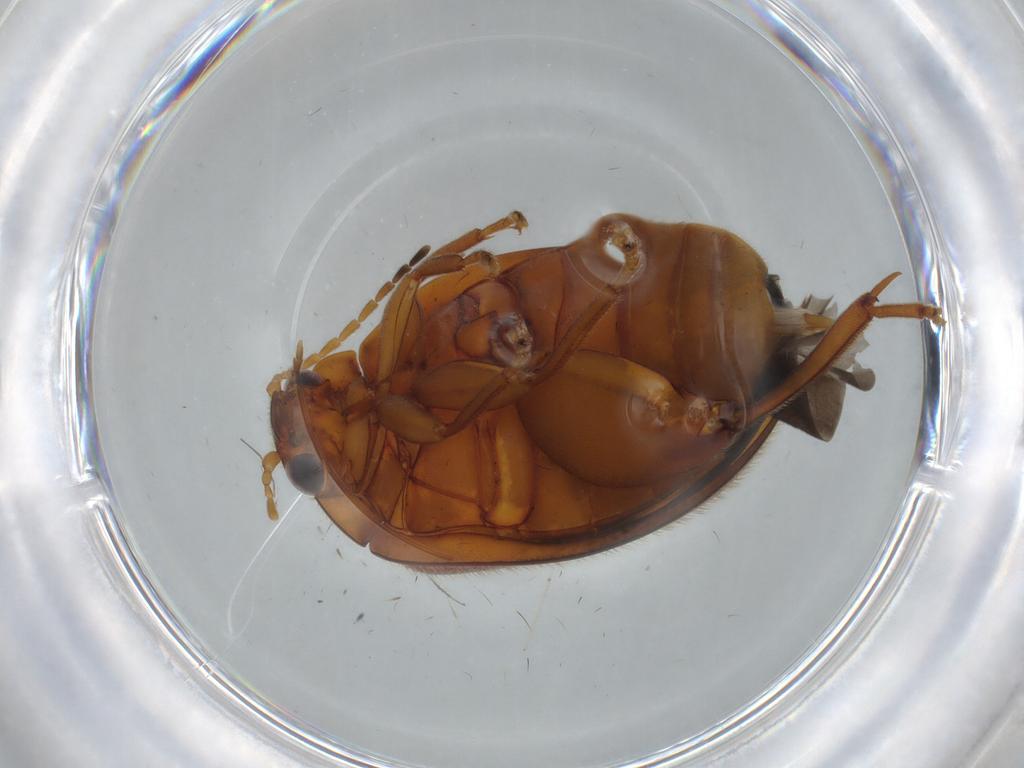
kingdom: Animalia
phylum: Arthropoda
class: Insecta
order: Coleoptera
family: Scirtidae
